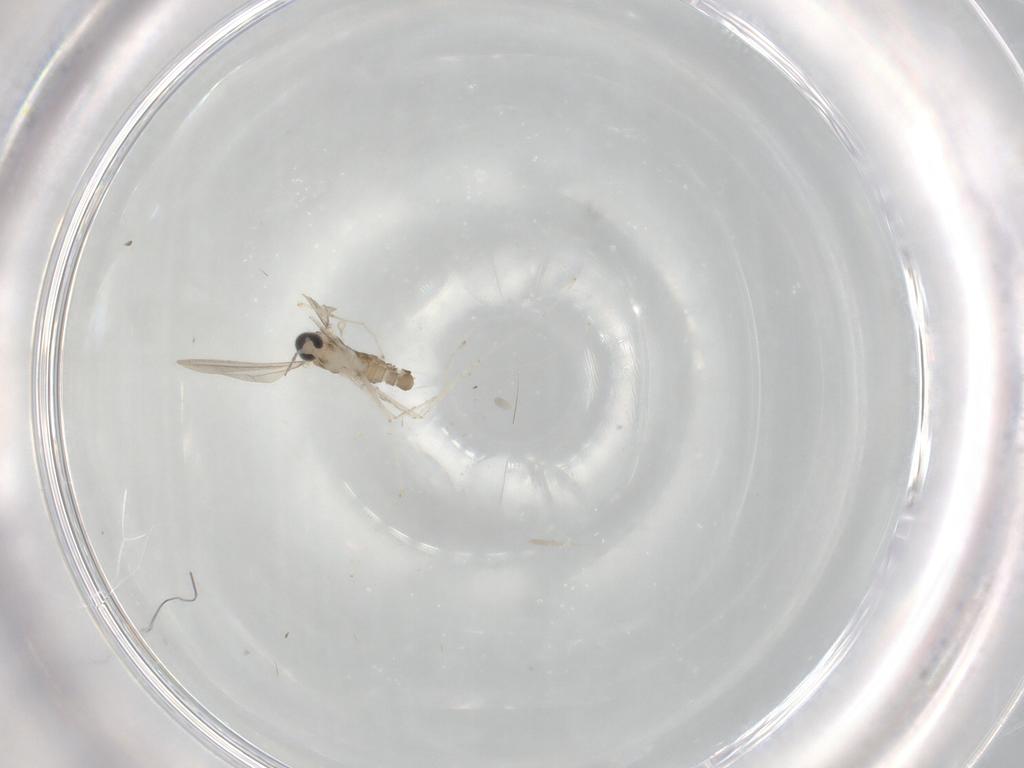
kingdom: Animalia
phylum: Arthropoda
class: Insecta
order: Diptera
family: Cecidomyiidae
